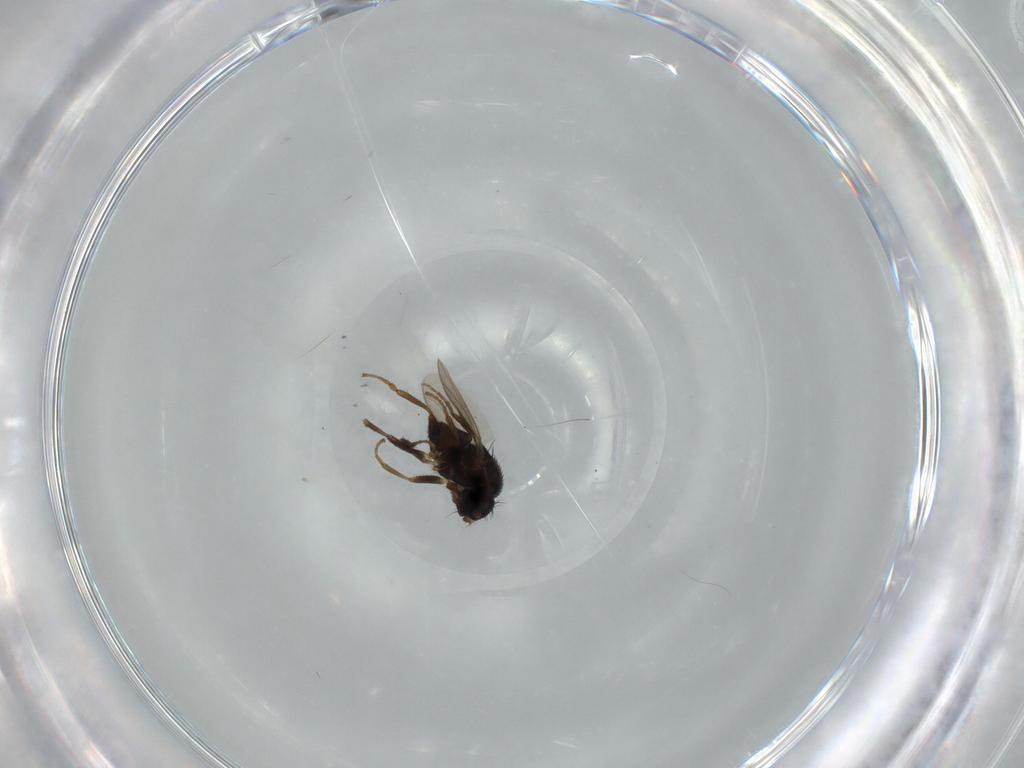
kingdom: Animalia
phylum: Arthropoda
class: Insecta
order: Diptera
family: Sphaeroceridae
